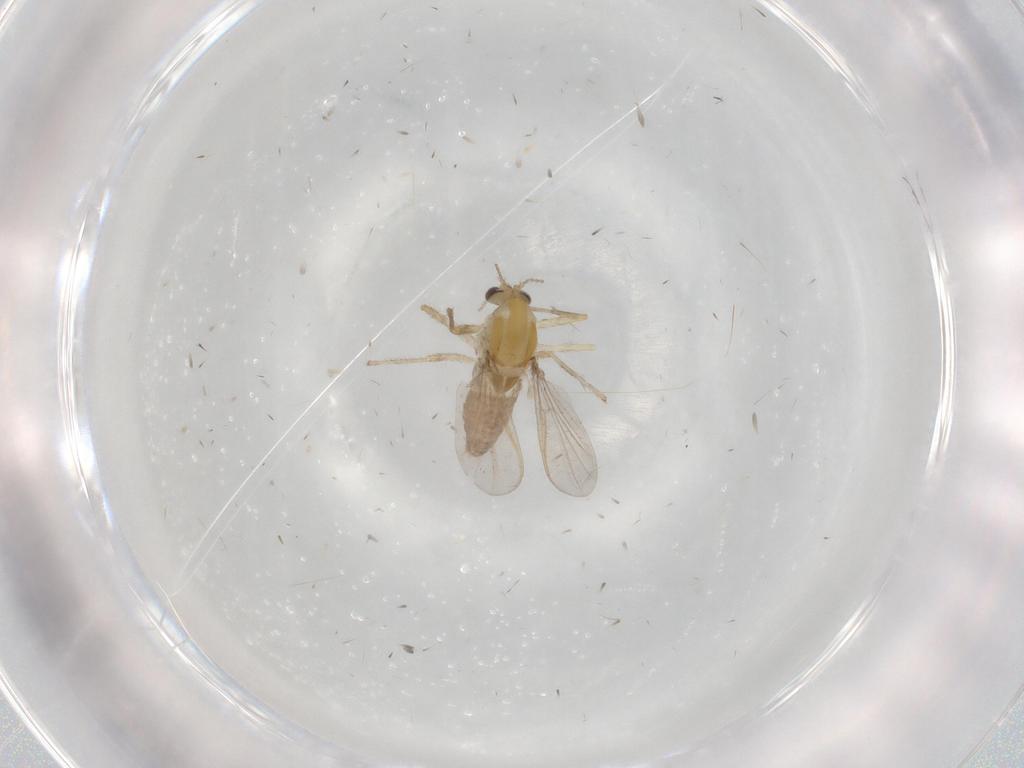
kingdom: Animalia
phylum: Arthropoda
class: Insecta
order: Diptera
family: Chironomidae
